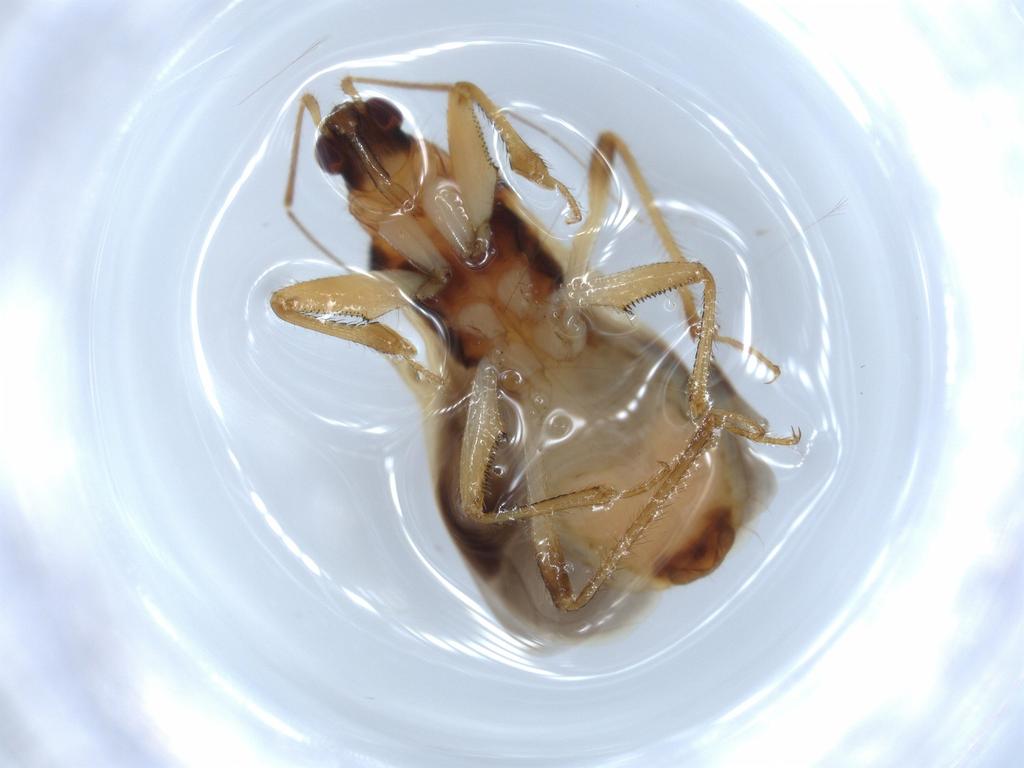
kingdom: Animalia
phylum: Arthropoda
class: Insecta
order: Hemiptera
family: Nabidae
